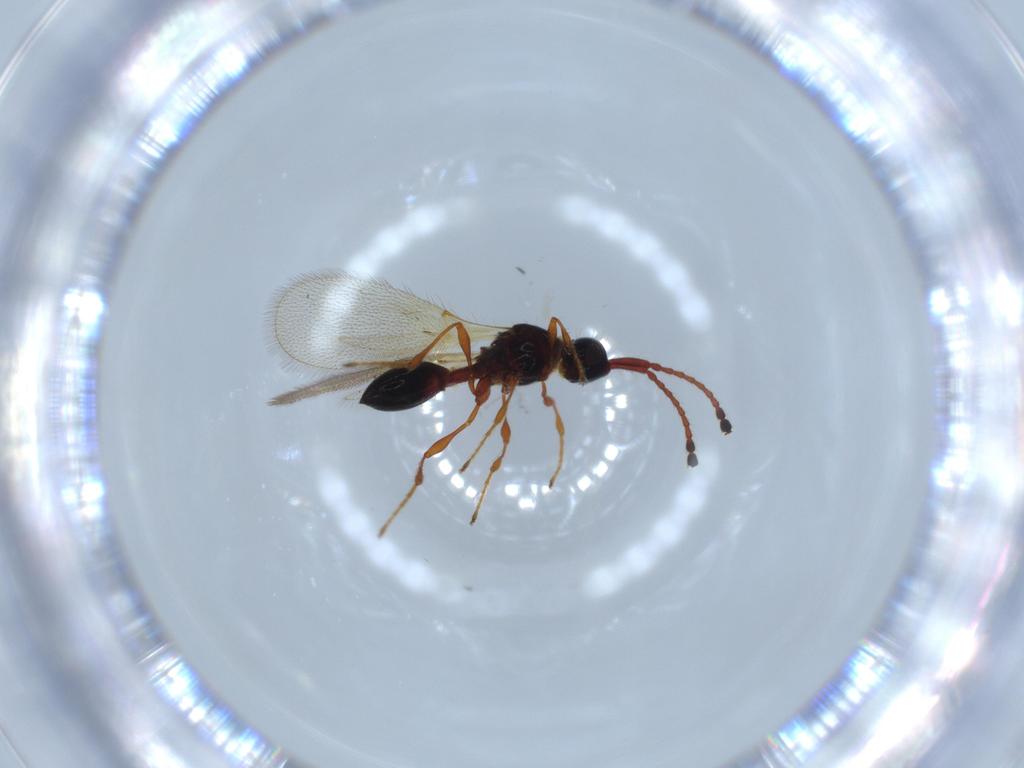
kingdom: Animalia
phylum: Arthropoda
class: Insecta
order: Hymenoptera
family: Diapriidae
